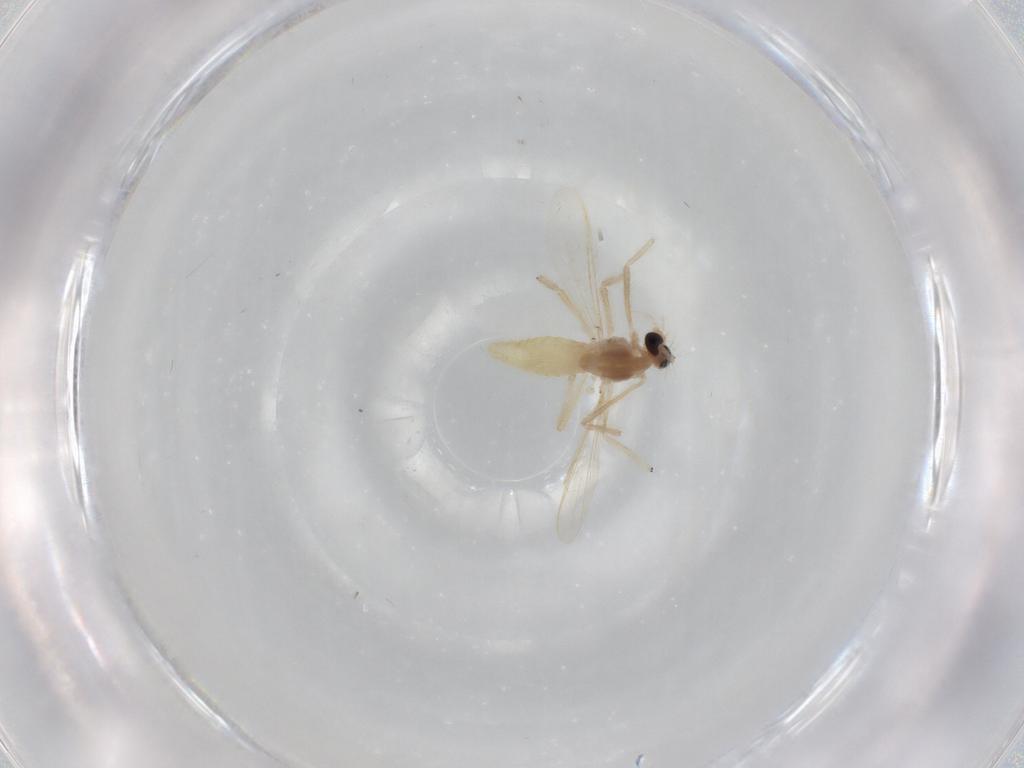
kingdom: Animalia
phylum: Arthropoda
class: Insecta
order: Diptera
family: Chironomidae
